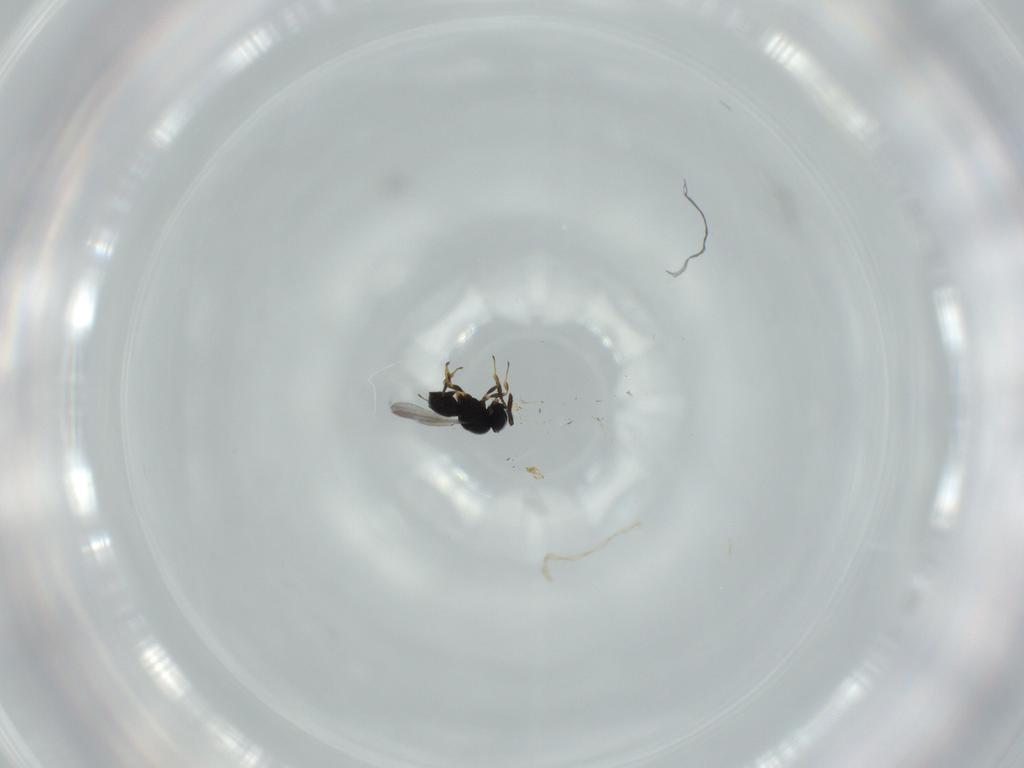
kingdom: Animalia
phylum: Arthropoda
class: Insecta
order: Hymenoptera
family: Scelionidae
